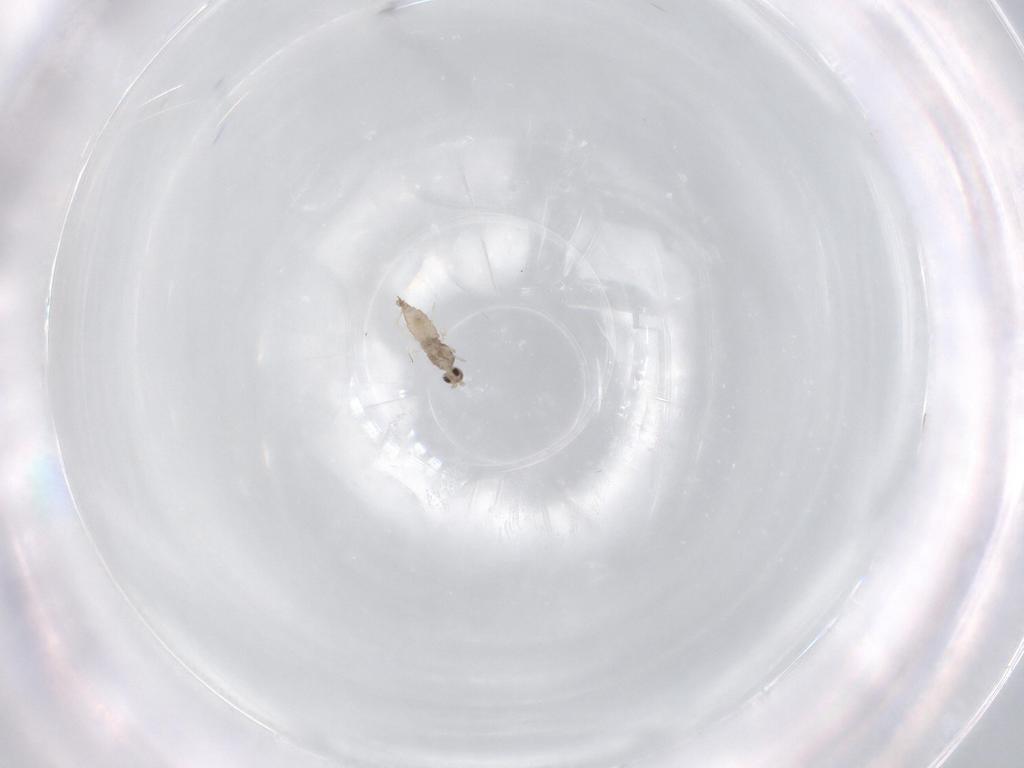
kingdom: Animalia
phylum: Arthropoda
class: Insecta
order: Diptera
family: Cecidomyiidae
